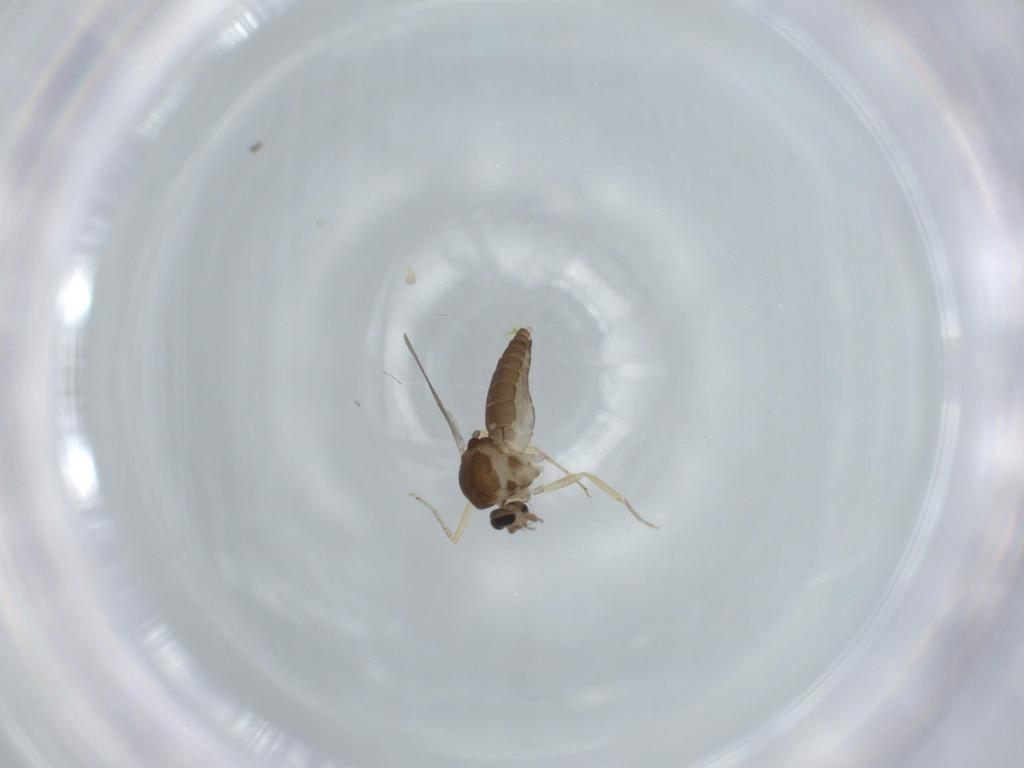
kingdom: Animalia
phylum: Arthropoda
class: Insecta
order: Diptera
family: Ceratopogonidae
